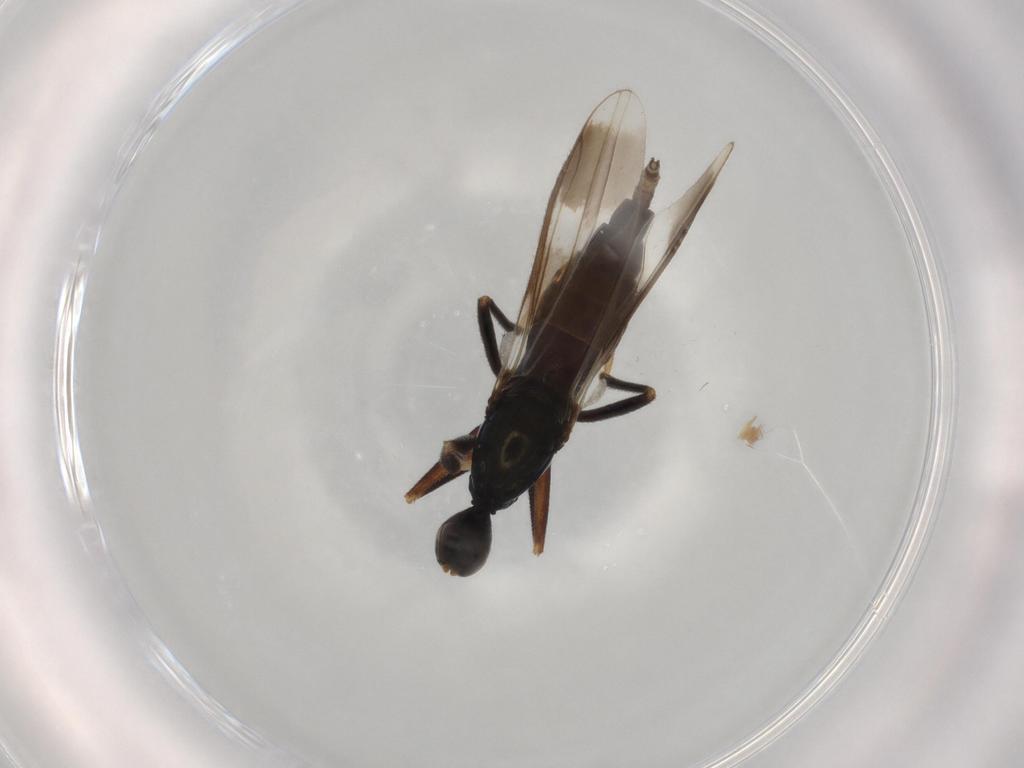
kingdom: Animalia
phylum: Arthropoda
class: Insecta
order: Diptera
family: Hybotidae
